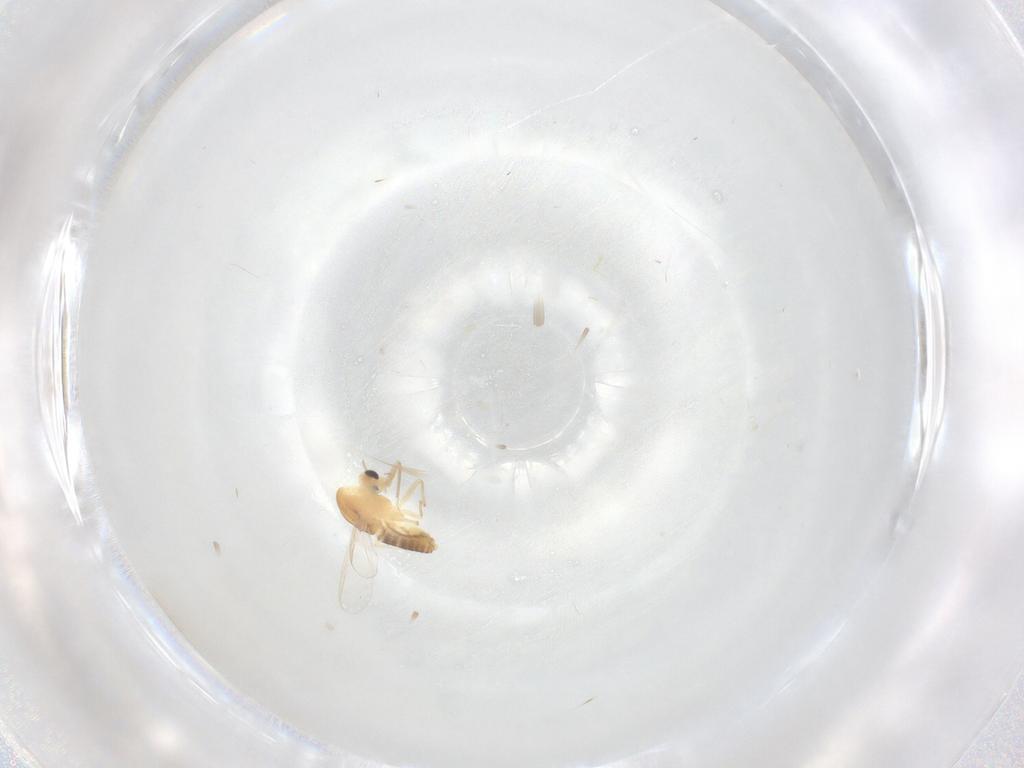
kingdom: Animalia
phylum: Arthropoda
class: Insecta
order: Diptera
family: Chironomidae
